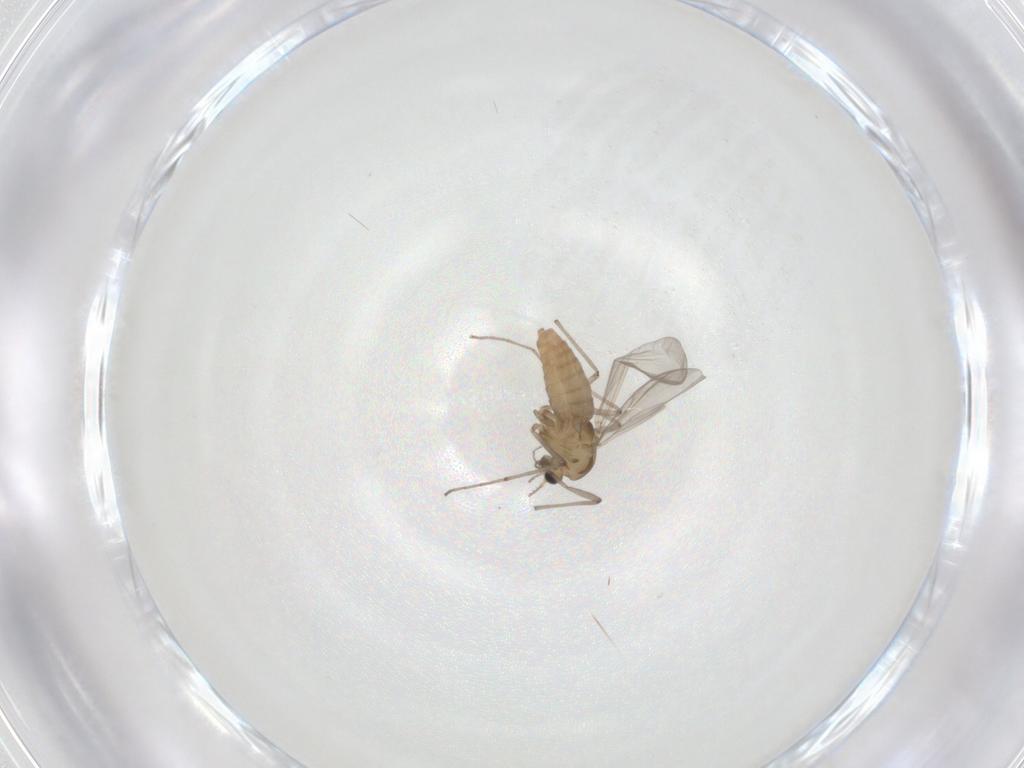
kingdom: Animalia
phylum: Arthropoda
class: Insecta
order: Diptera
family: Chironomidae
